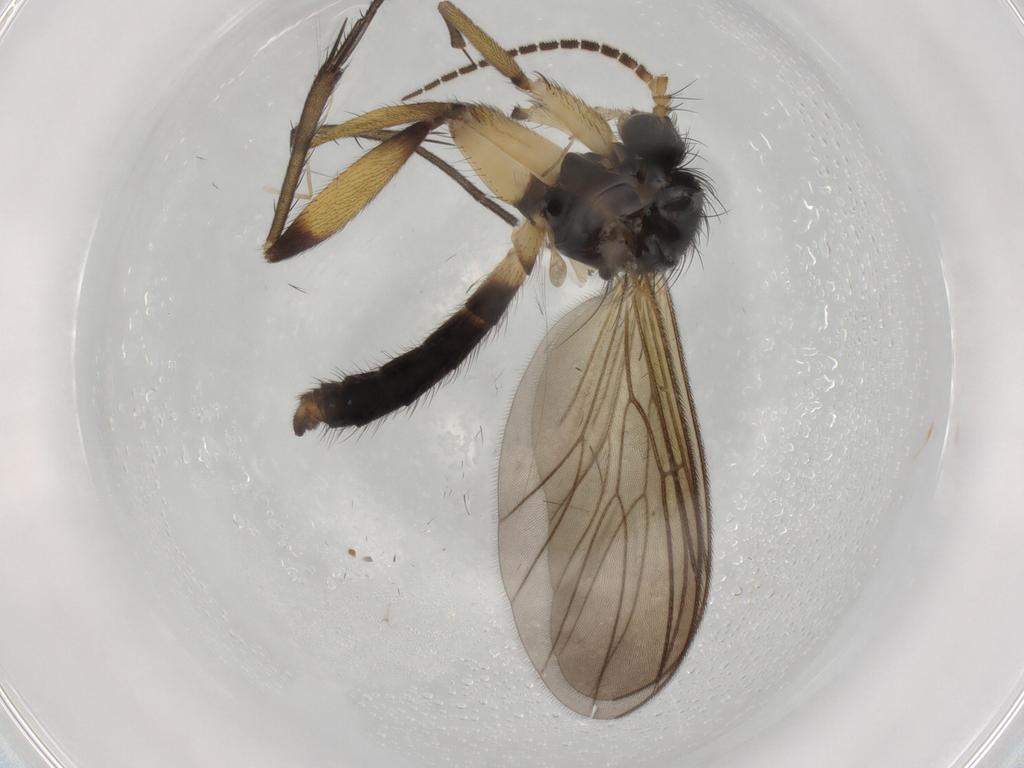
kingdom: Animalia
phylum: Arthropoda
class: Insecta
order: Diptera
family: Mycetophilidae
